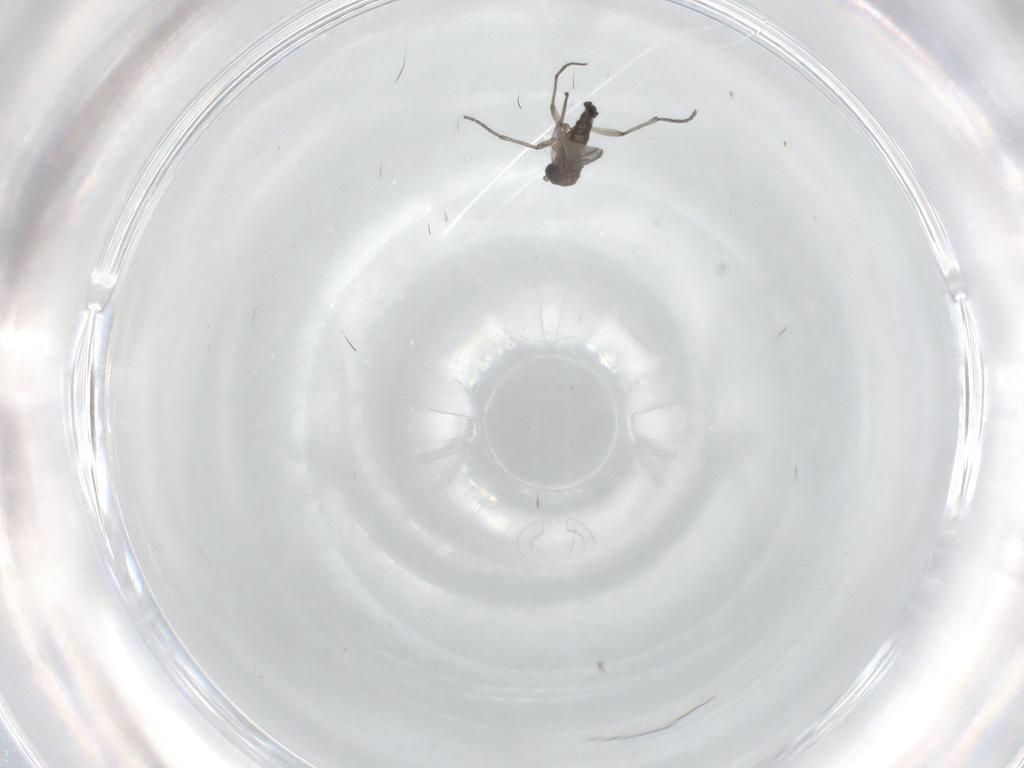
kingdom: Animalia
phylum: Arthropoda
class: Insecta
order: Diptera
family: Sciaridae
